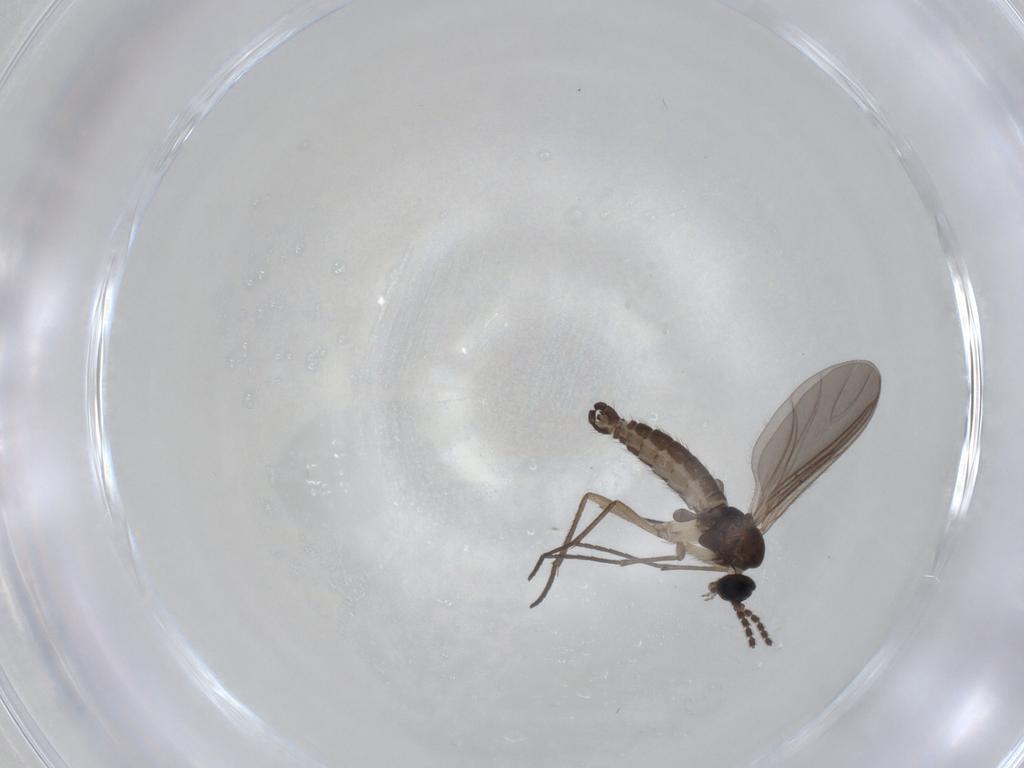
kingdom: Animalia
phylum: Arthropoda
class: Insecta
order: Diptera
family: Sciaridae
